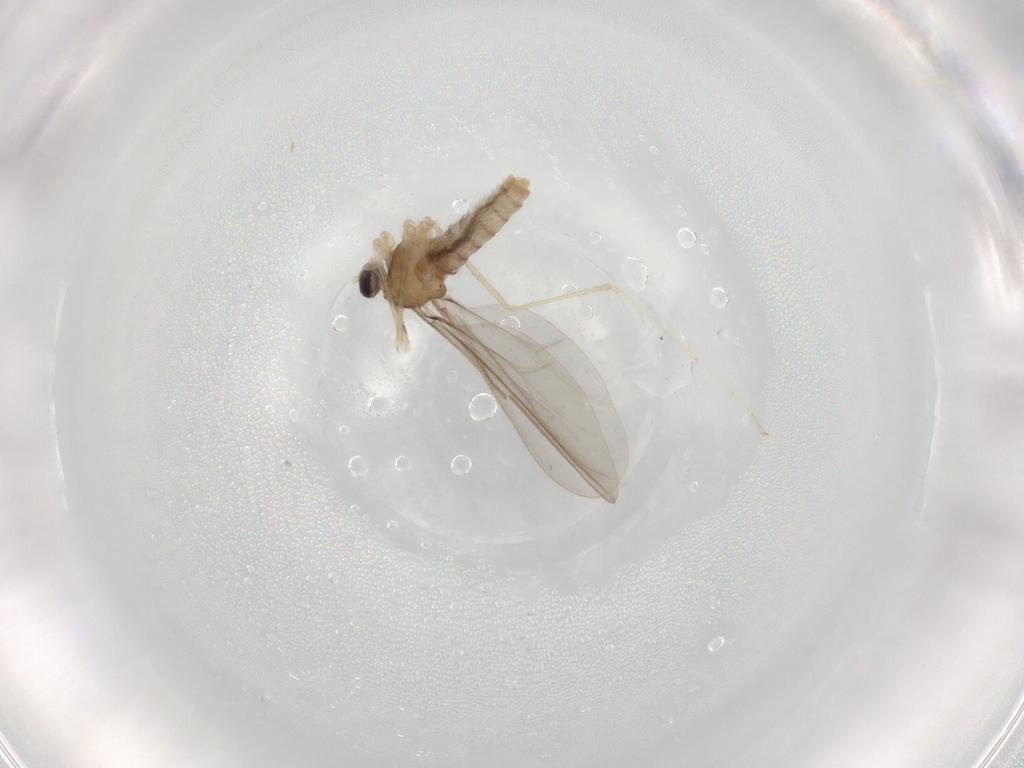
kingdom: Animalia
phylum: Arthropoda
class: Insecta
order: Diptera
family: Cecidomyiidae
